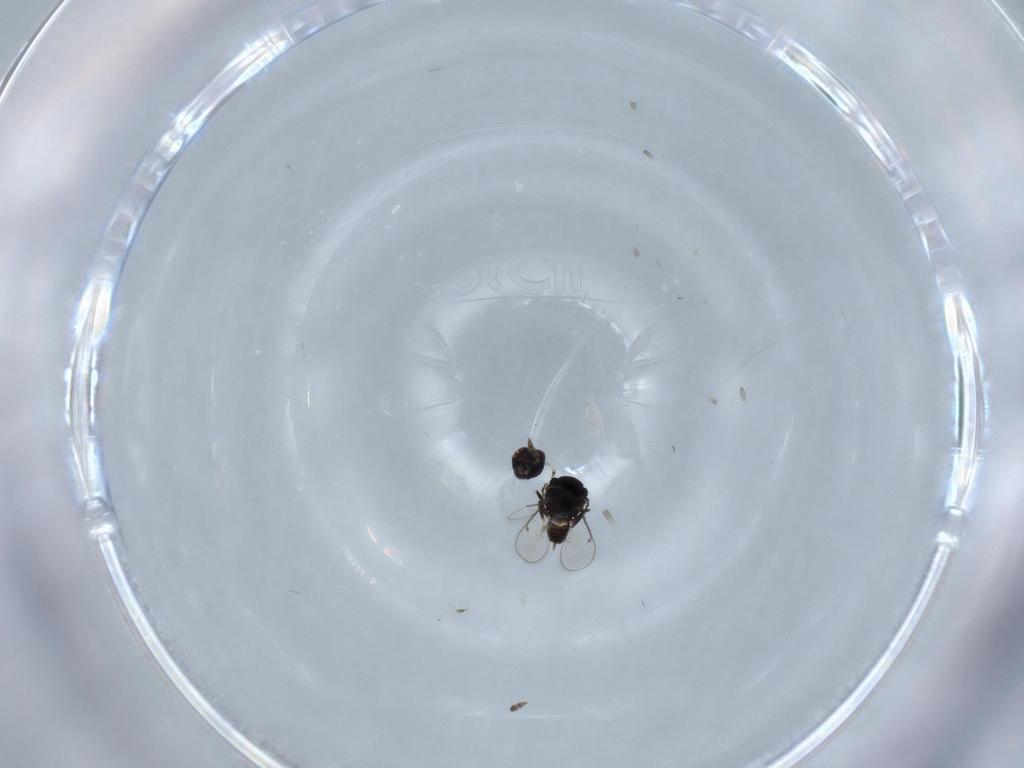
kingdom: Animalia
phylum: Arthropoda
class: Insecta
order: Hymenoptera
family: Eulophidae
